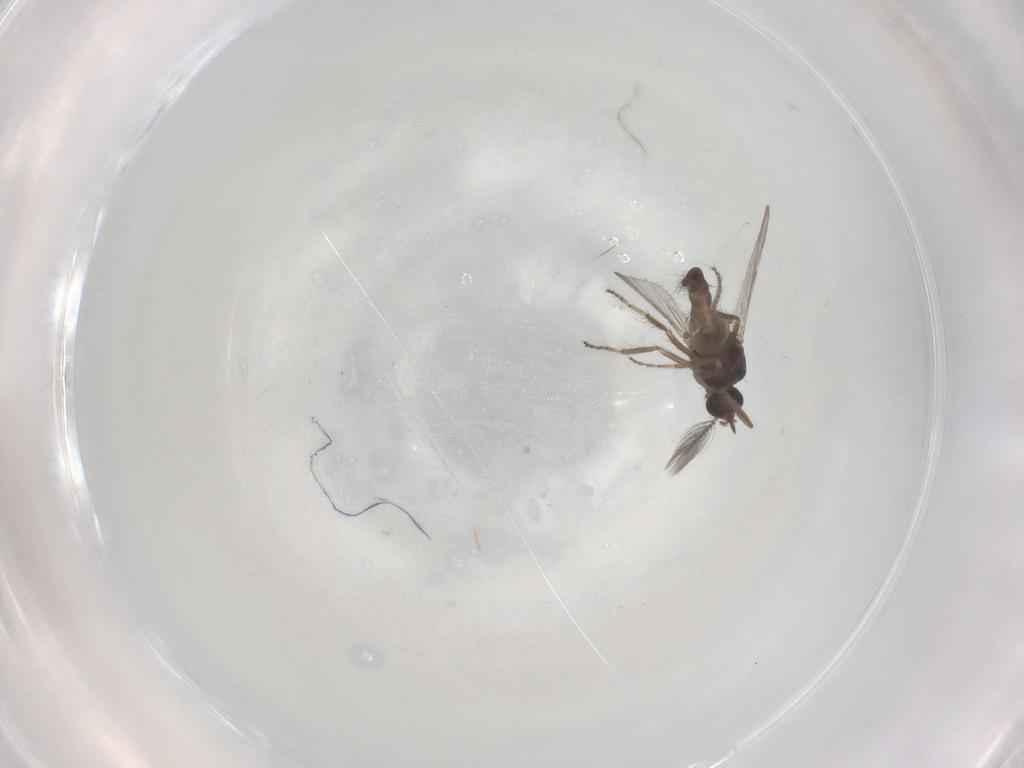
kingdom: Animalia
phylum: Arthropoda
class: Insecta
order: Diptera
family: Ceratopogonidae
